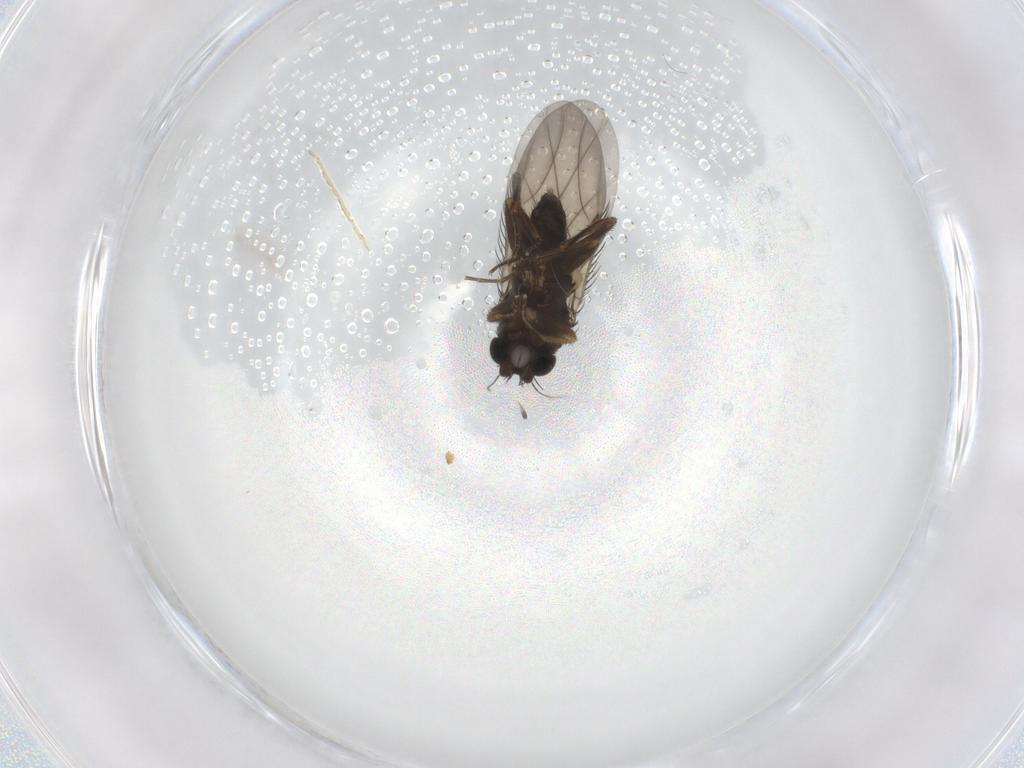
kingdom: Animalia
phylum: Arthropoda
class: Insecta
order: Diptera
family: Phoridae
